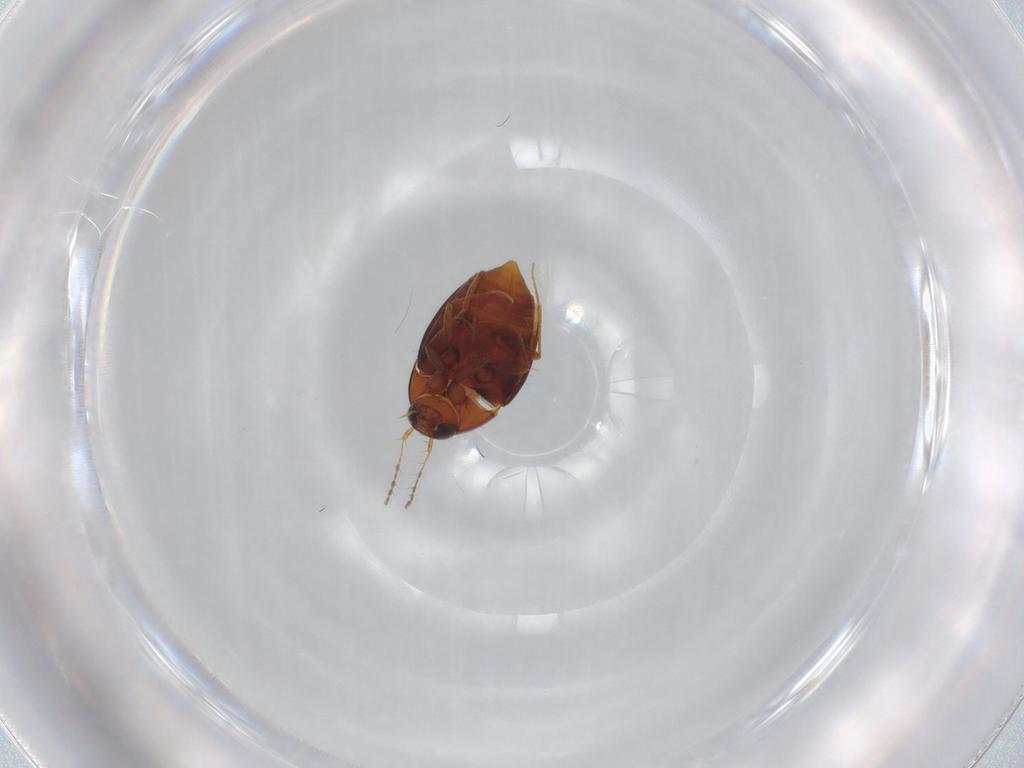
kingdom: Animalia
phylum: Arthropoda
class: Insecta
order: Coleoptera
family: Staphylinidae
